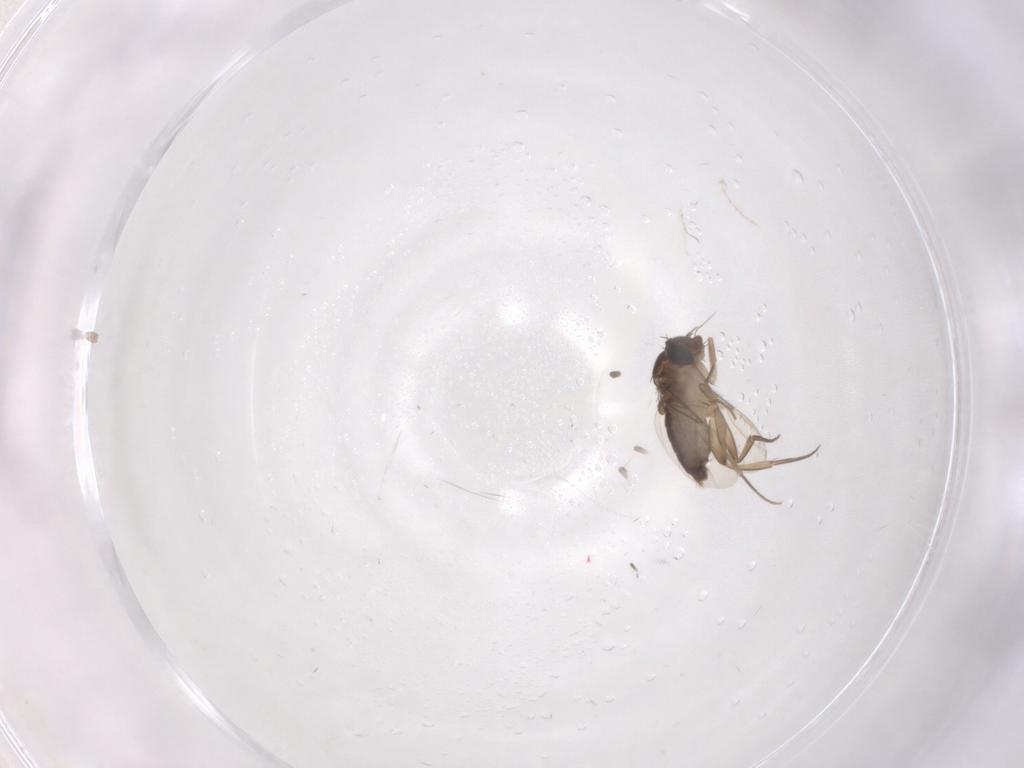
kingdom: Animalia
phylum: Arthropoda
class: Insecta
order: Diptera
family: Phoridae
